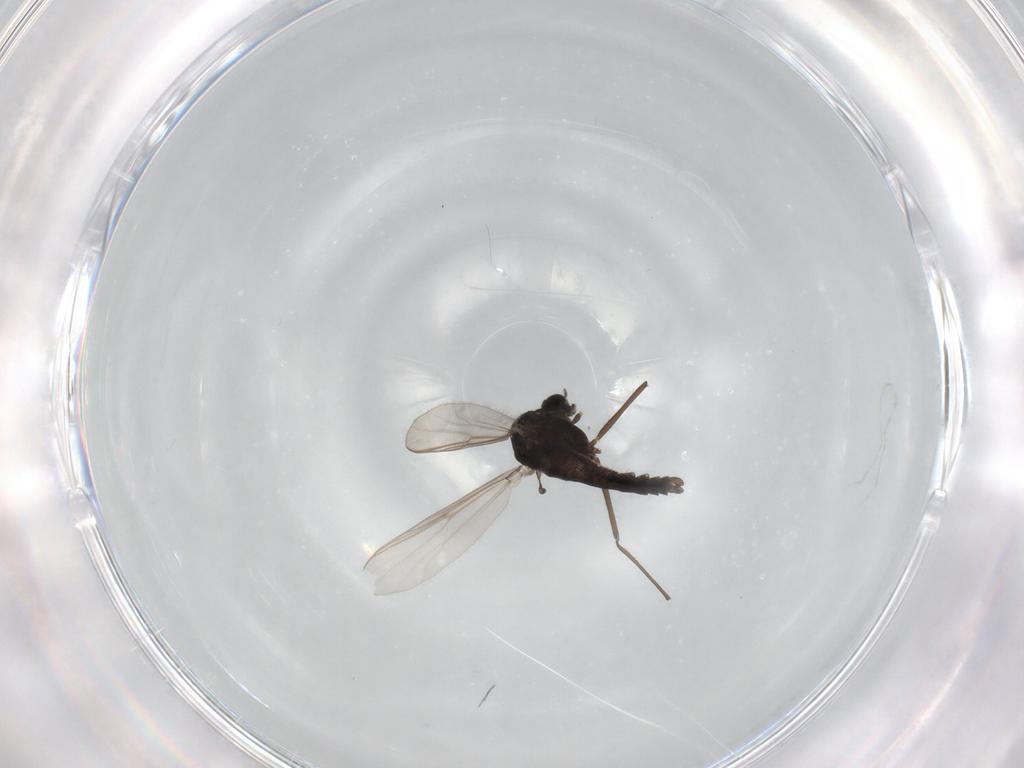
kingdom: Animalia
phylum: Arthropoda
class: Insecta
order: Diptera
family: Chironomidae
